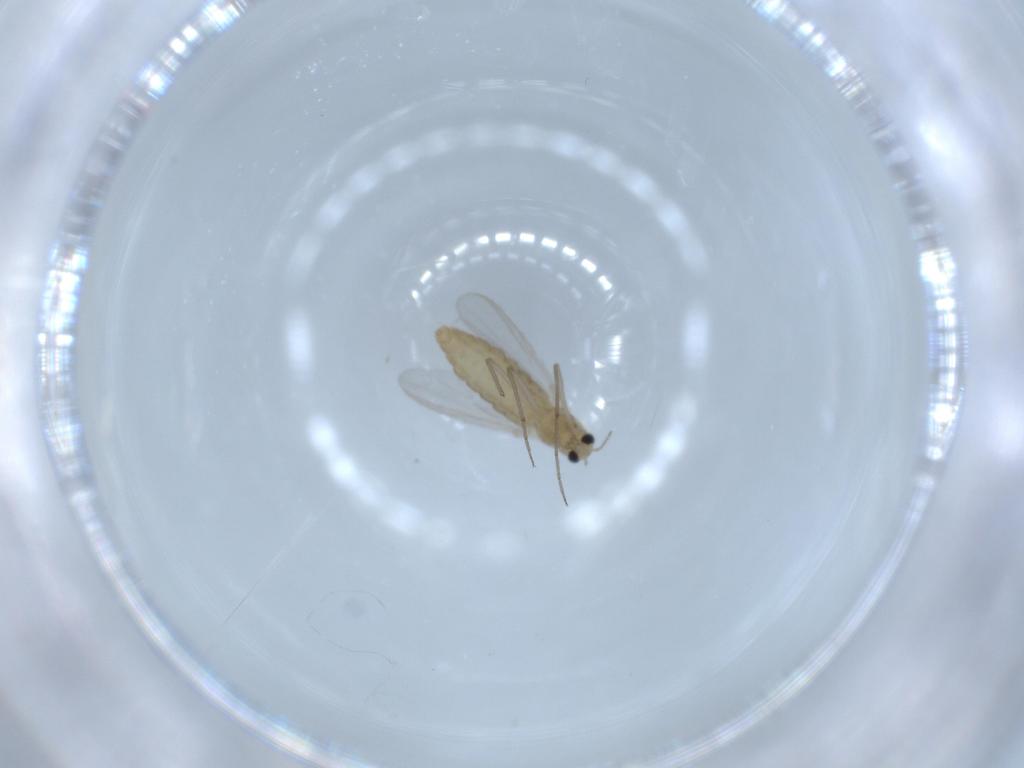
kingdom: Animalia
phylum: Arthropoda
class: Insecta
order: Diptera
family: Chironomidae
